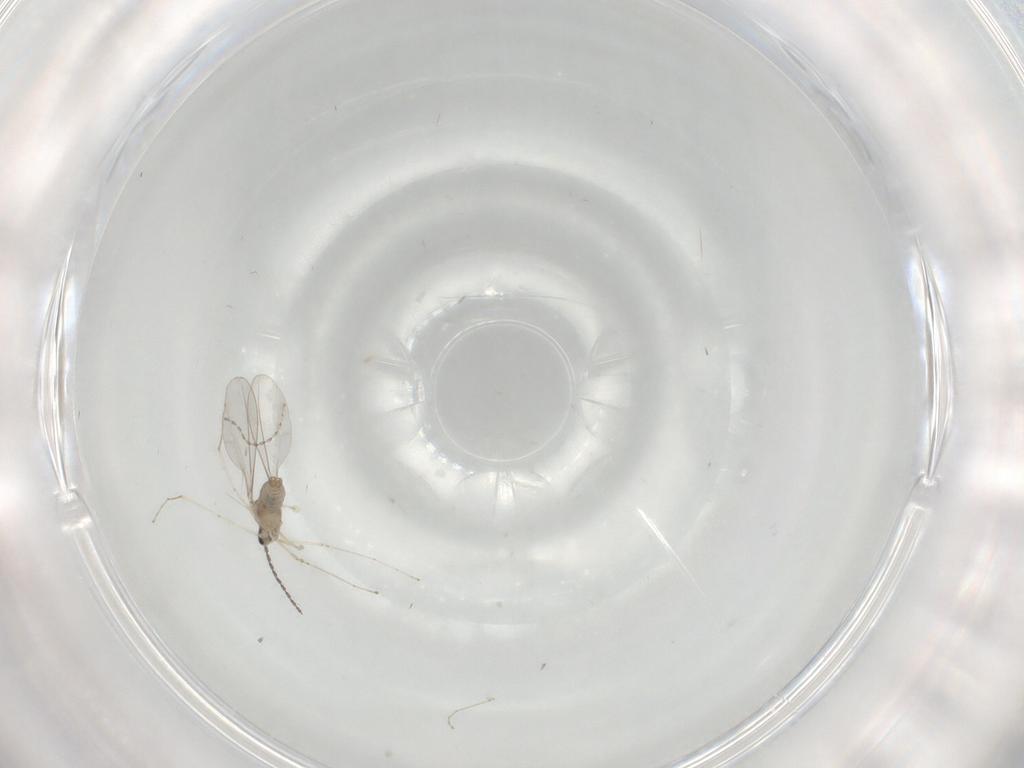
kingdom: Animalia
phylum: Arthropoda
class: Insecta
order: Diptera
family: Cecidomyiidae
